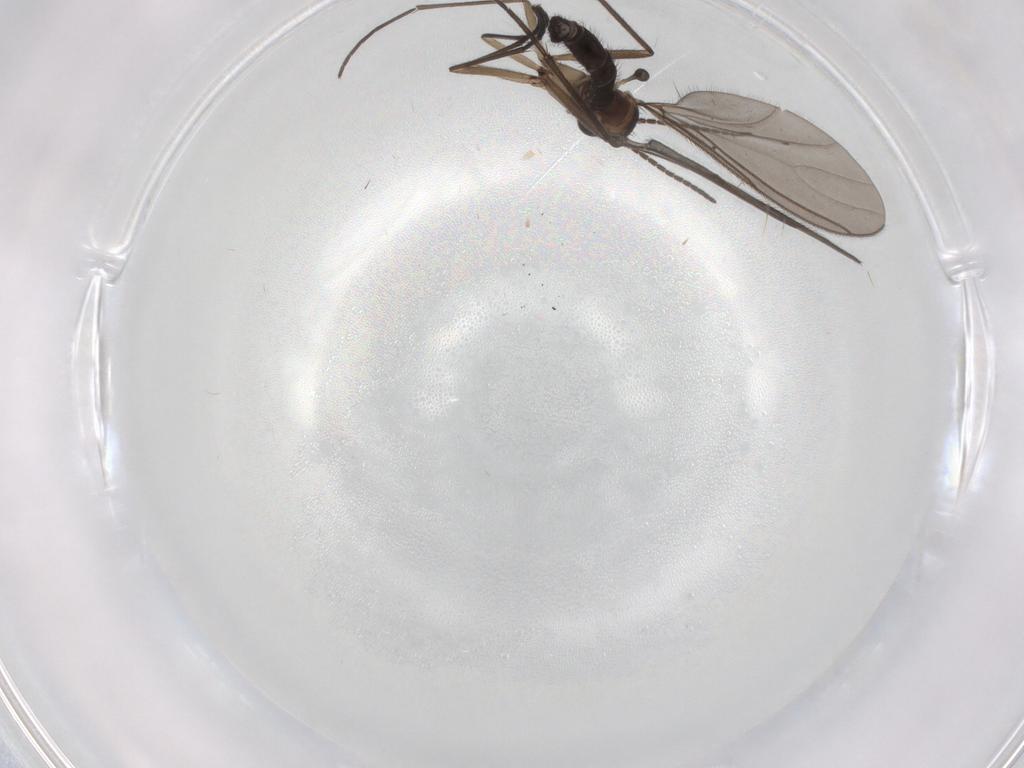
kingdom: Animalia
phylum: Arthropoda
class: Insecta
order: Diptera
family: Sciaridae
